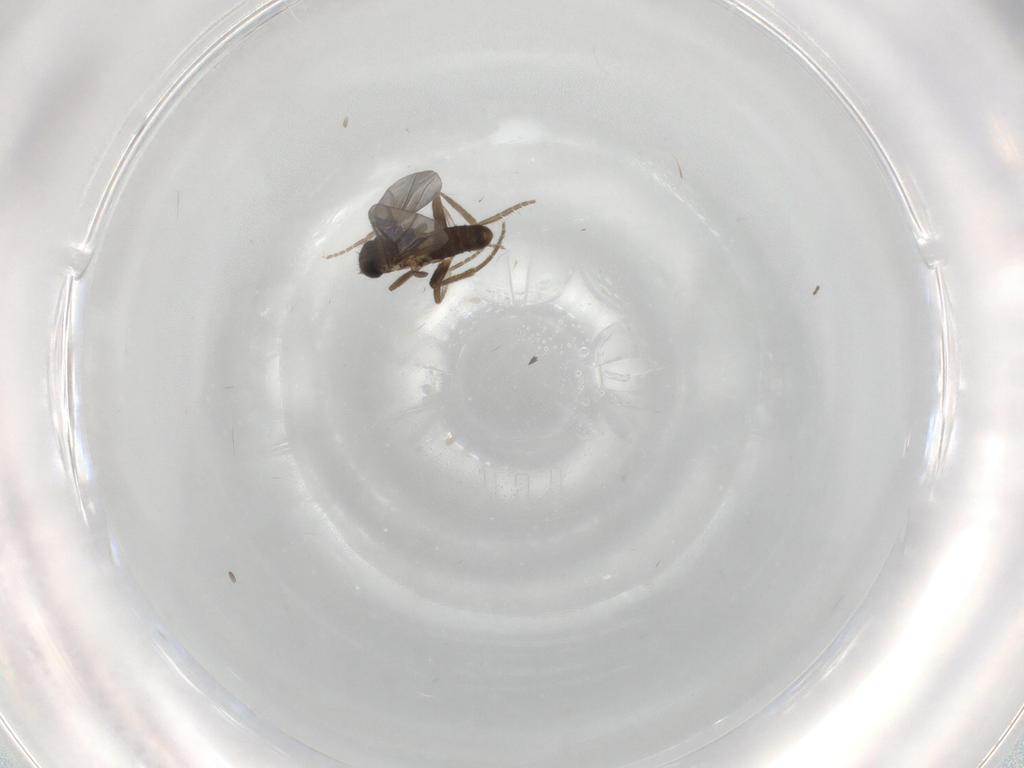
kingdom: Animalia
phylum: Arthropoda
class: Insecta
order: Diptera
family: Phoridae
